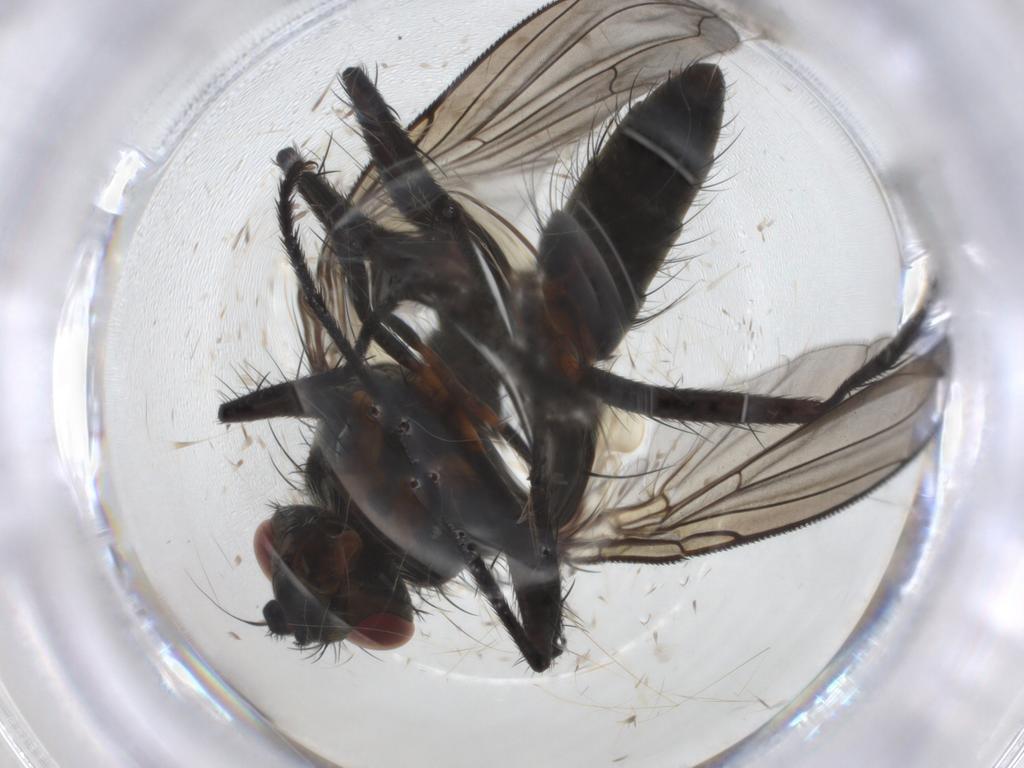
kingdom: Animalia
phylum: Arthropoda
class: Insecta
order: Diptera
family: Tachinidae
